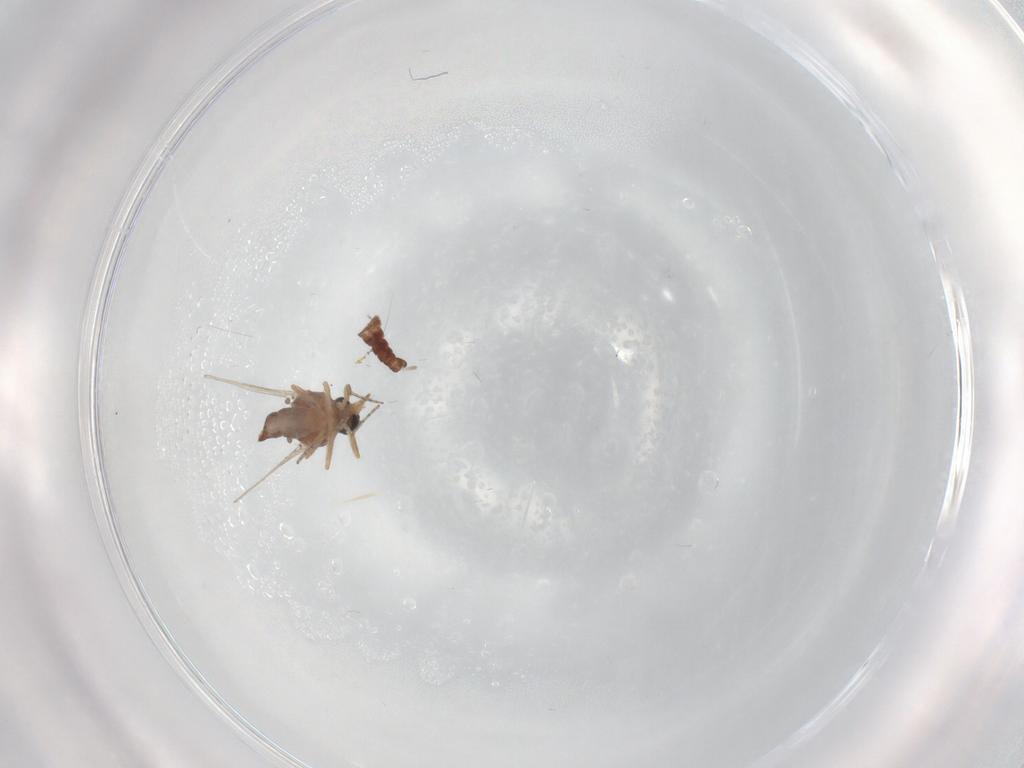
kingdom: Animalia
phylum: Arthropoda
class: Insecta
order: Diptera
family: Ceratopogonidae
